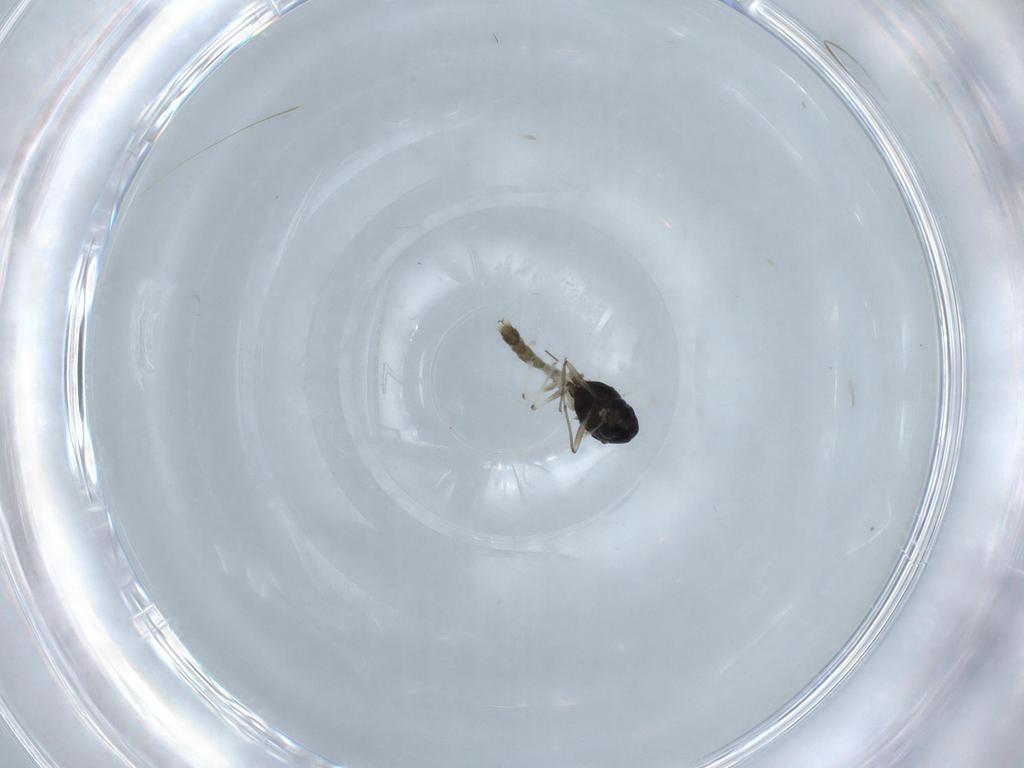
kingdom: Animalia
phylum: Arthropoda
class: Insecta
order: Diptera
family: Chironomidae
